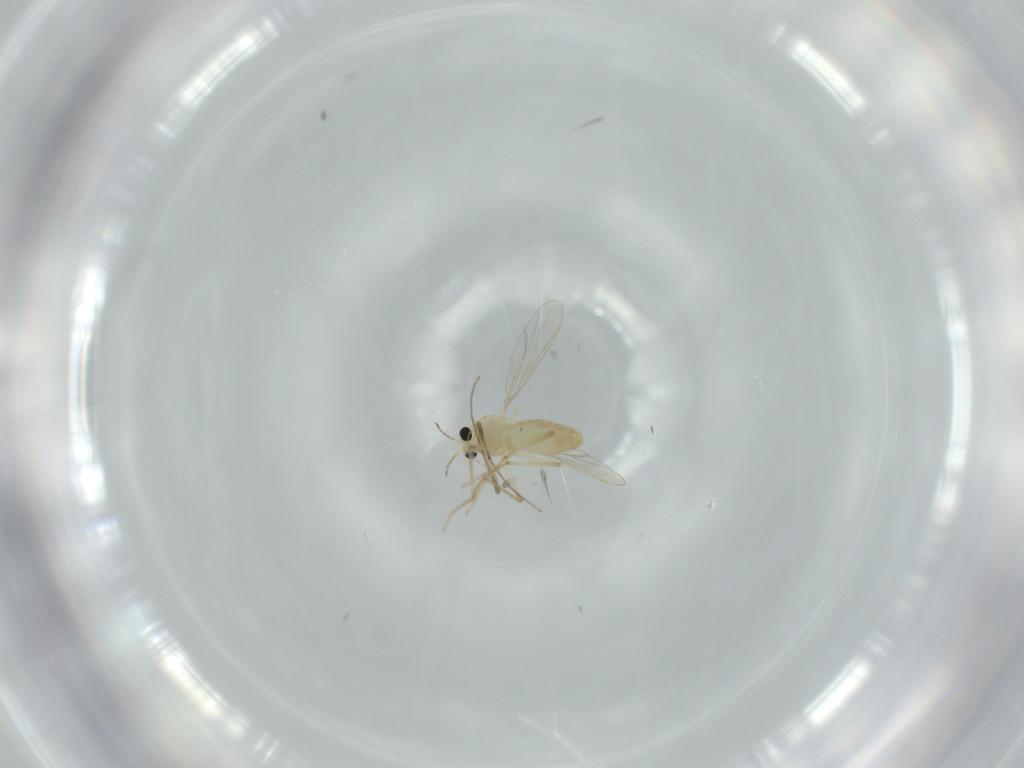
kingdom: Animalia
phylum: Arthropoda
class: Insecta
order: Diptera
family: Chironomidae
